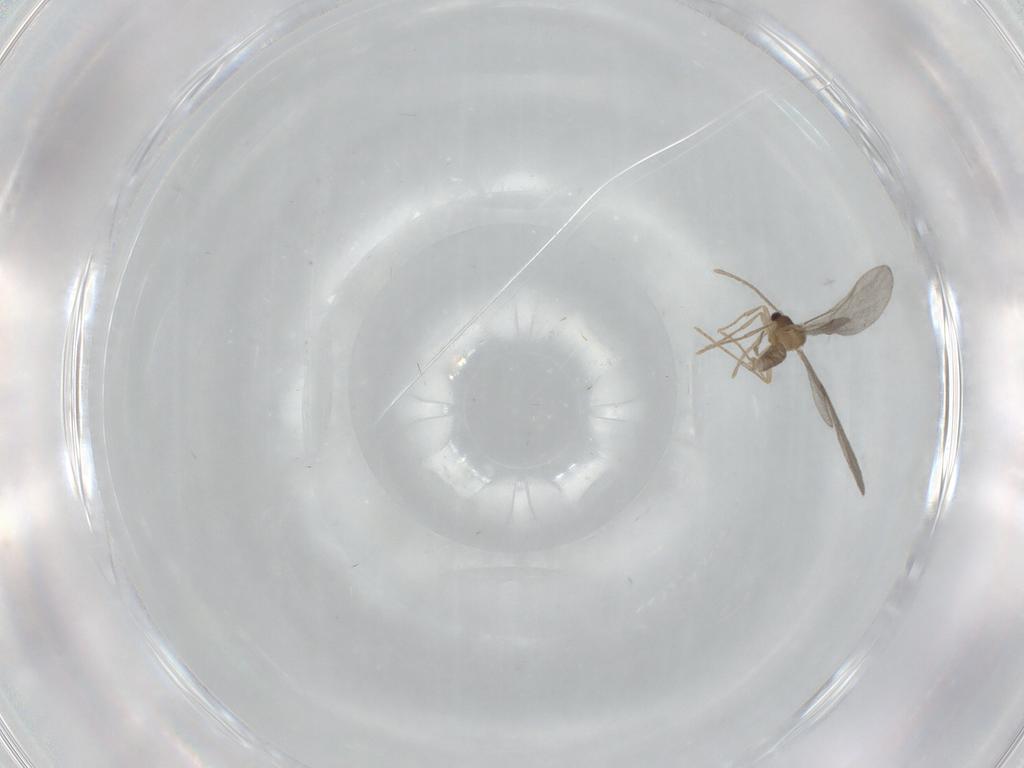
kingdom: Animalia
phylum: Arthropoda
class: Insecta
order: Hymenoptera
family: Formicidae
